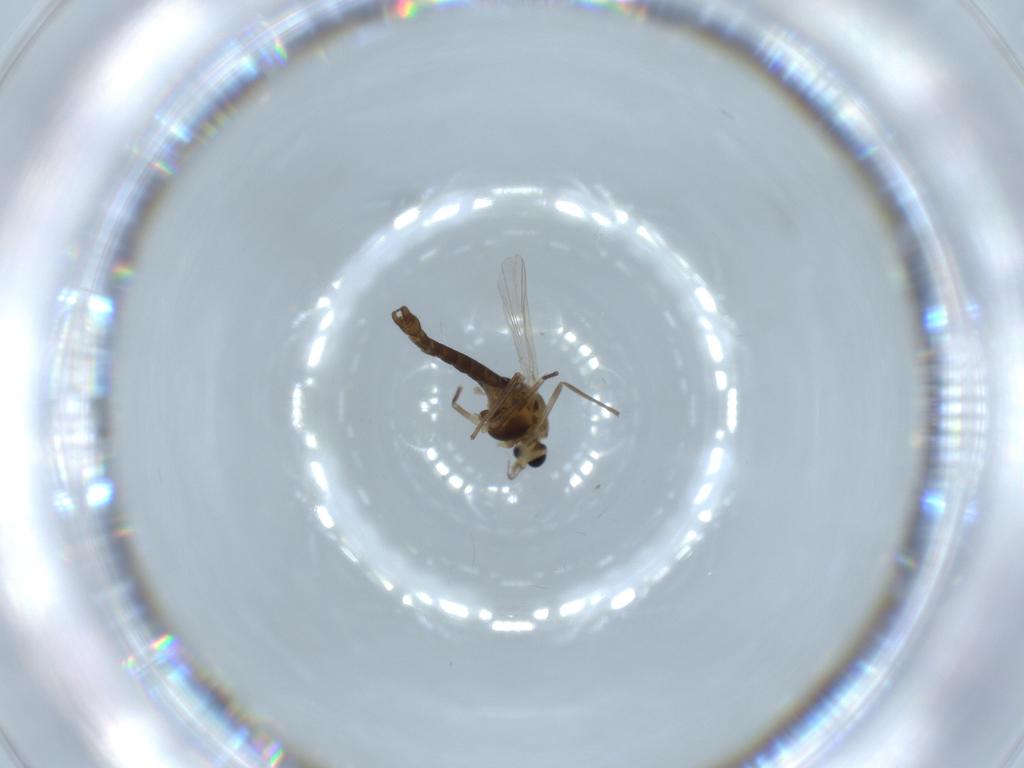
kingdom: Animalia
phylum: Arthropoda
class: Insecta
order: Diptera
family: Chironomidae
